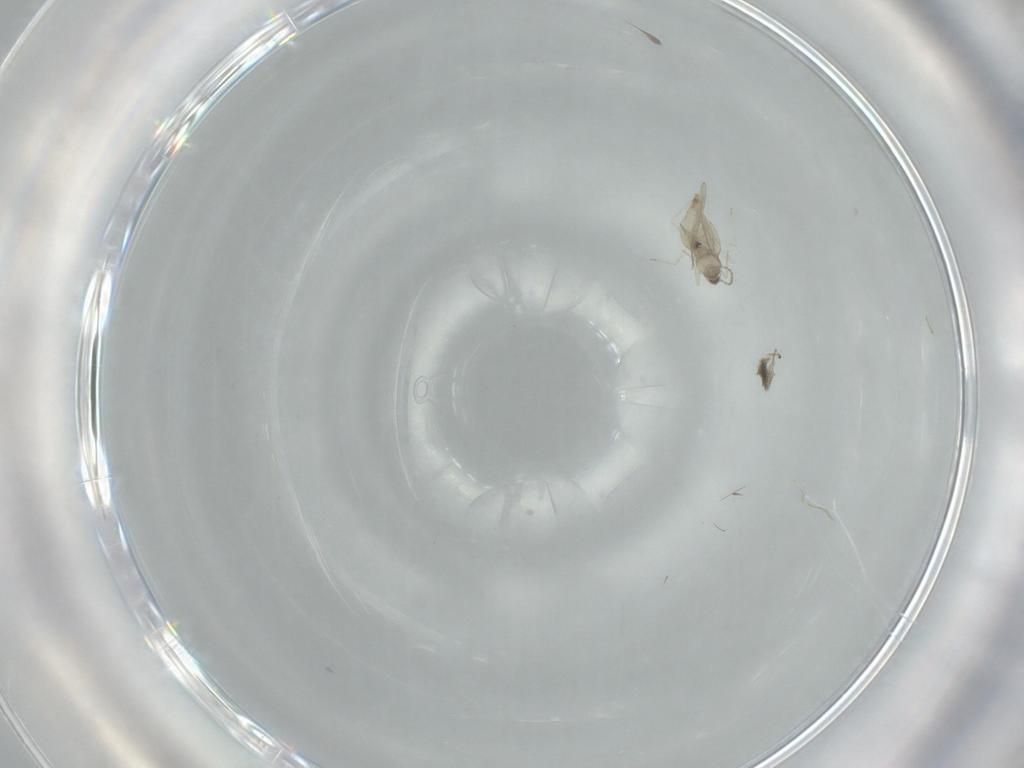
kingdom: Animalia
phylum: Arthropoda
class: Insecta
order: Diptera
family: Cecidomyiidae
